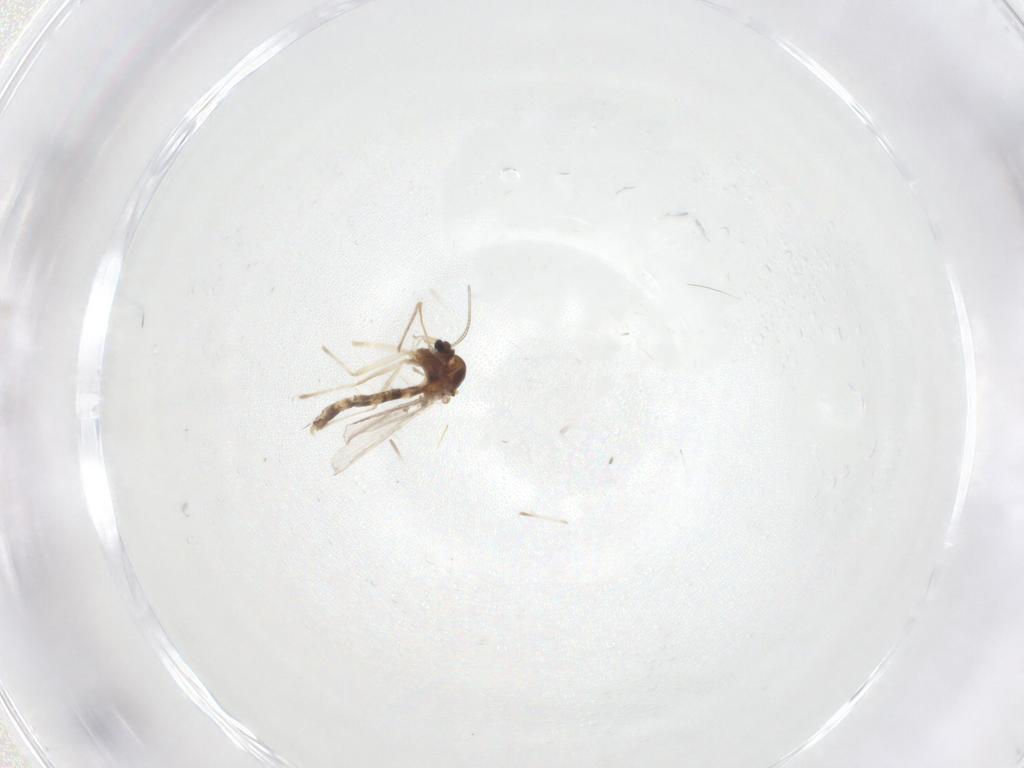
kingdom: Animalia
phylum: Arthropoda
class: Insecta
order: Diptera
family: Chironomidae
